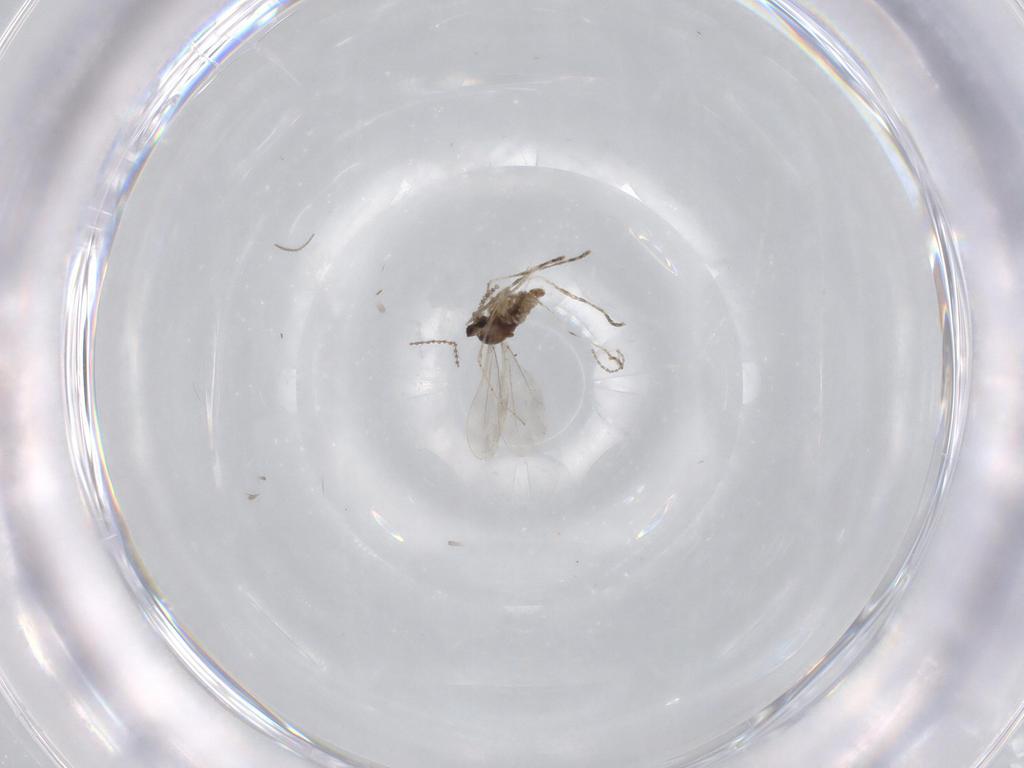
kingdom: Animalia
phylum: Arthropoda
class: Insecta
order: Diptera
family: Cecidomyiidae
